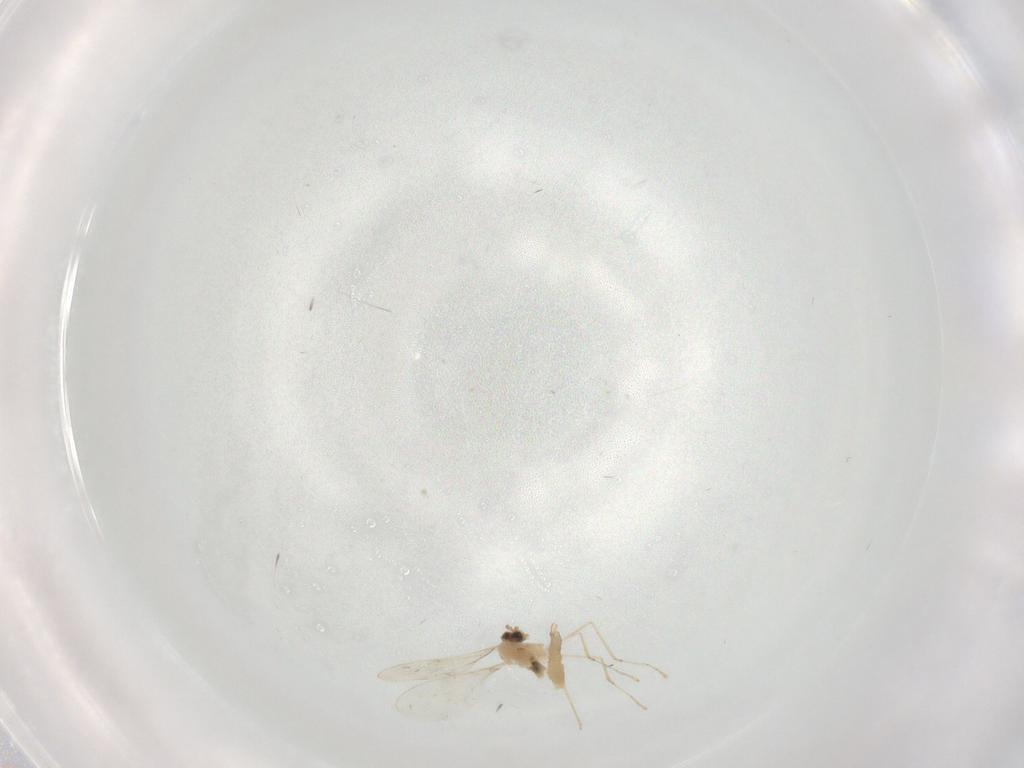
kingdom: Animalia
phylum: Arthropoda
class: Insecta
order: Diptera
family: Cecidomyiidae
